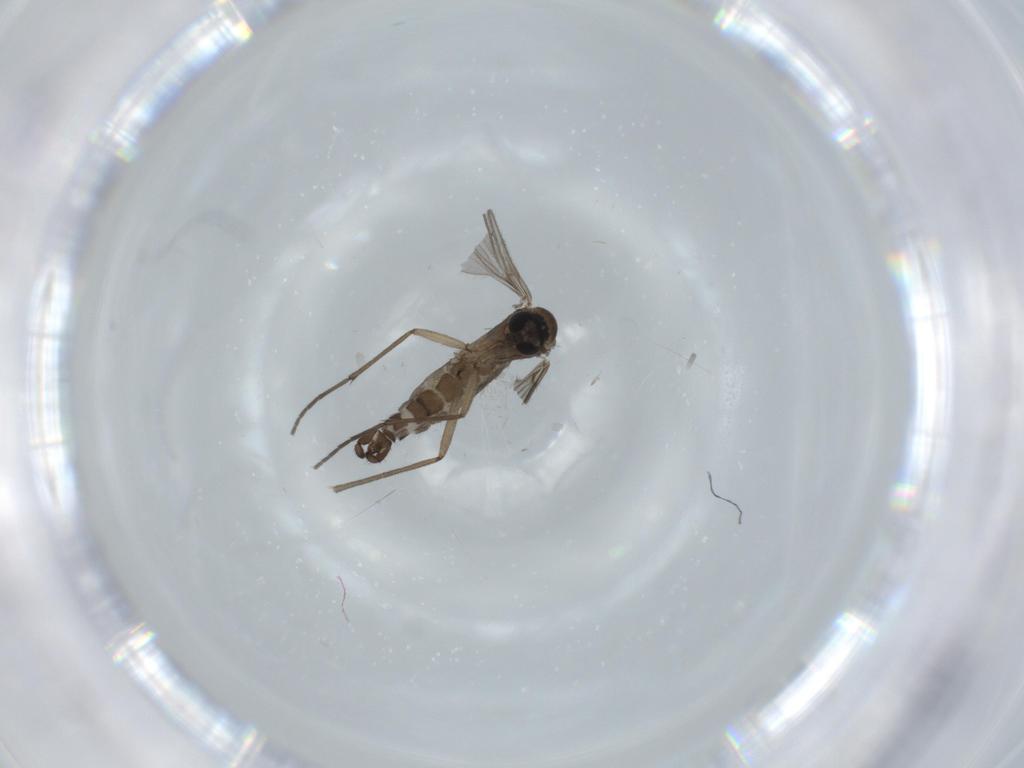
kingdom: Animalia
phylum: Arthropoda
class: Insecta
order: Diptera
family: Sciaridae
